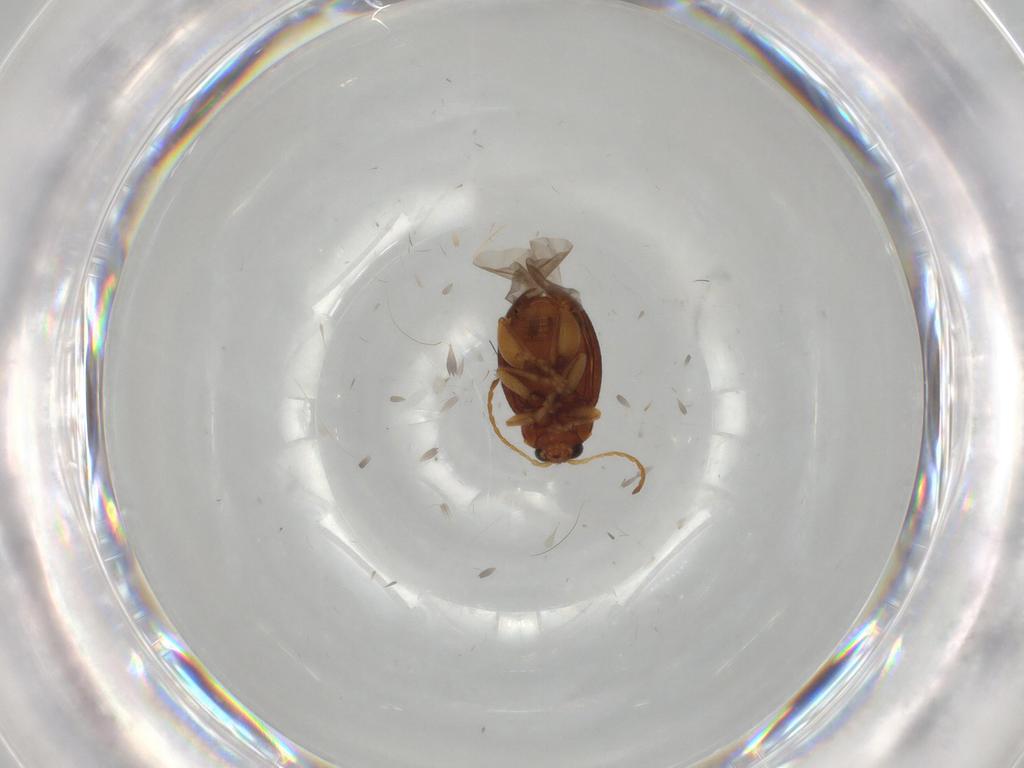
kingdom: Animalia
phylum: Arthropoda
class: Insecta
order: Coleoptera
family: Chrysomelidae
